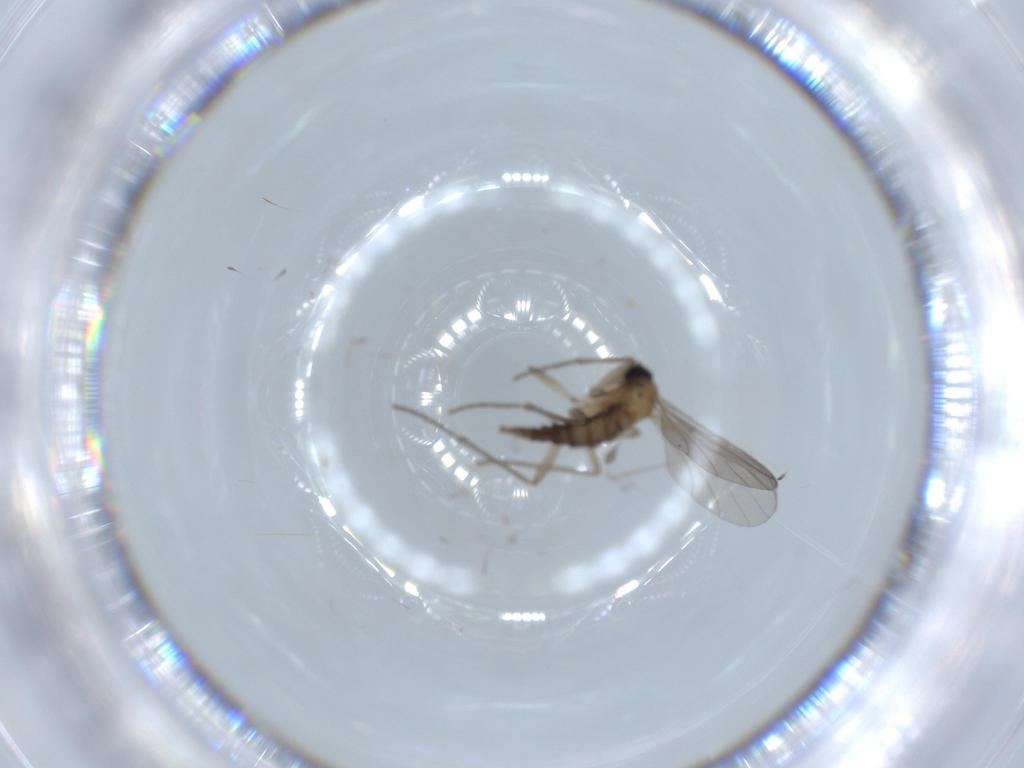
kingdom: Animalia
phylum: Arthropoda
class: Insecta
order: Diptera
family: Sciaridae
